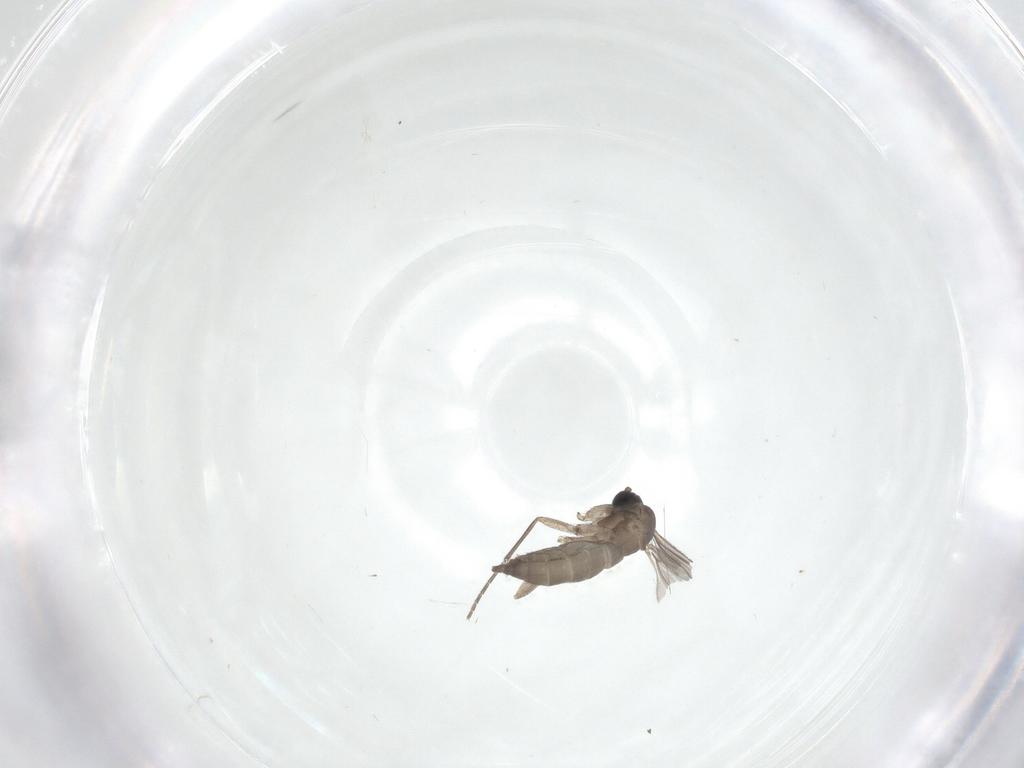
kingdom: Animalia
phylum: Arthropoda
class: Insecta
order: Diptera
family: Sciaridae
